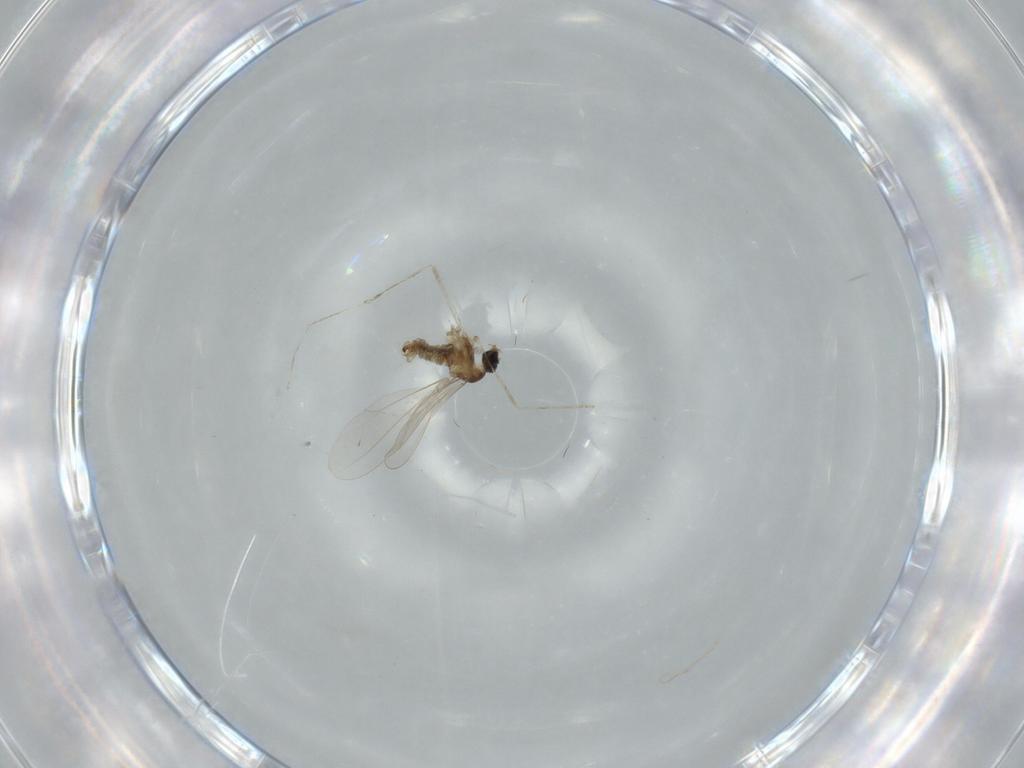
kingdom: Animalia
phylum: Arthropoda
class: Insecta
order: Diptera
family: Cecidomyiidae
